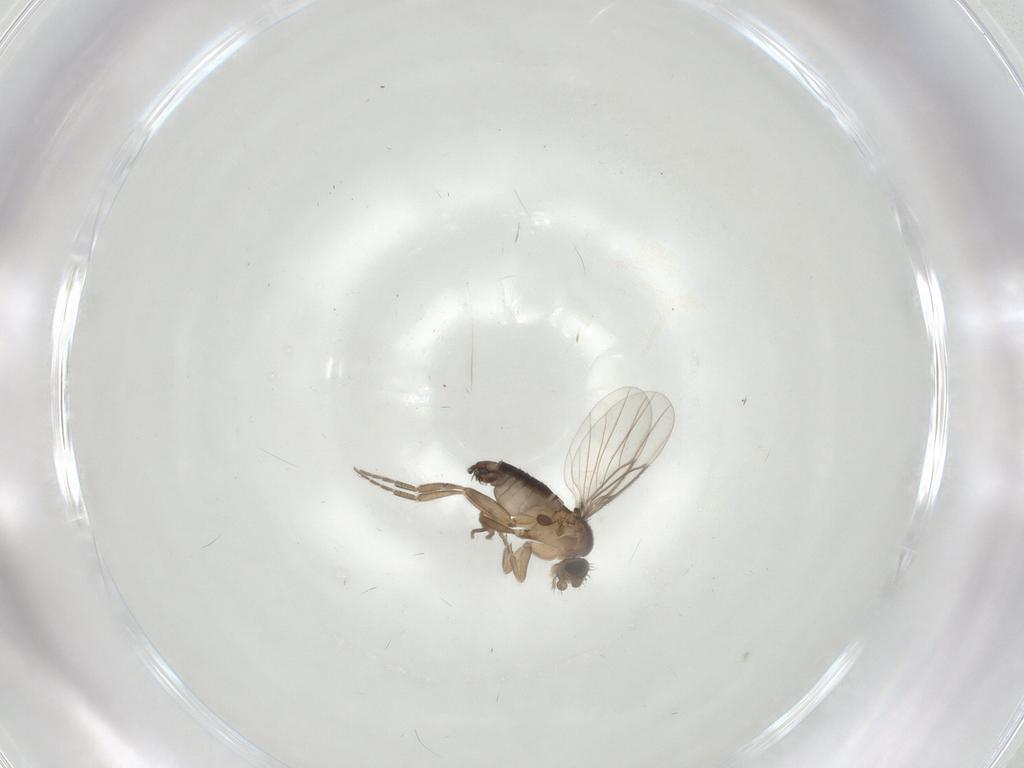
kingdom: Animalia
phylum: Arthropoda
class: Insecta
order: Diptera
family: Phoridae
